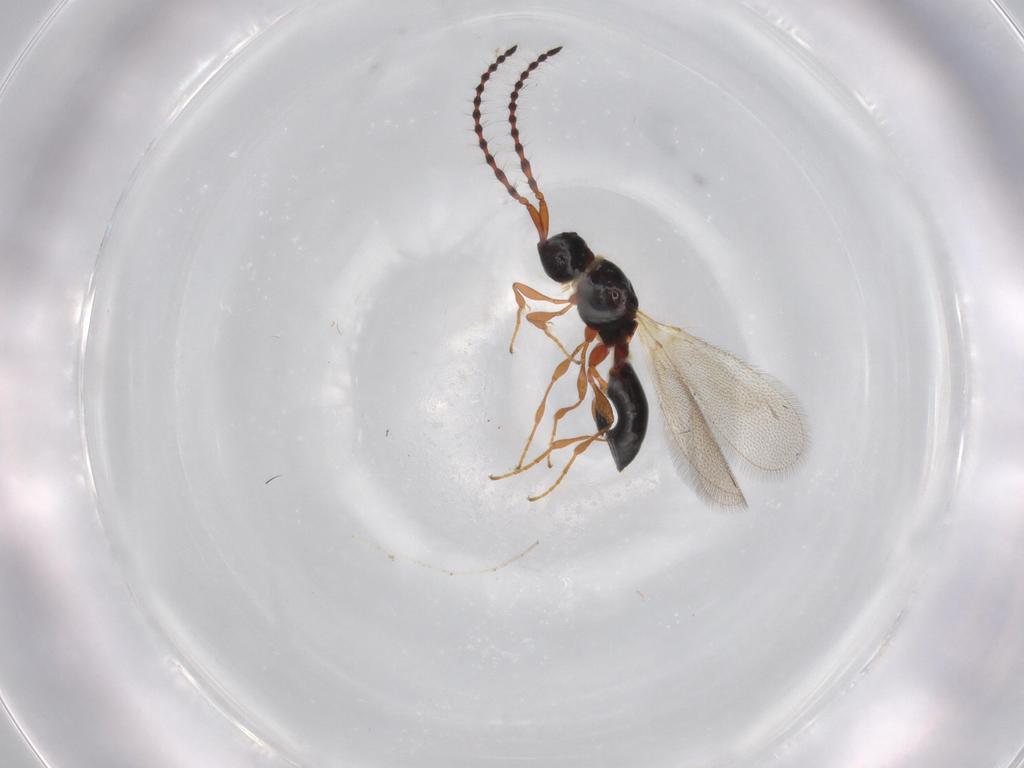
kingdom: Animalia
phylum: Arthropoda
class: Insecta
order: Hymenoptera
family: Diapriidae
